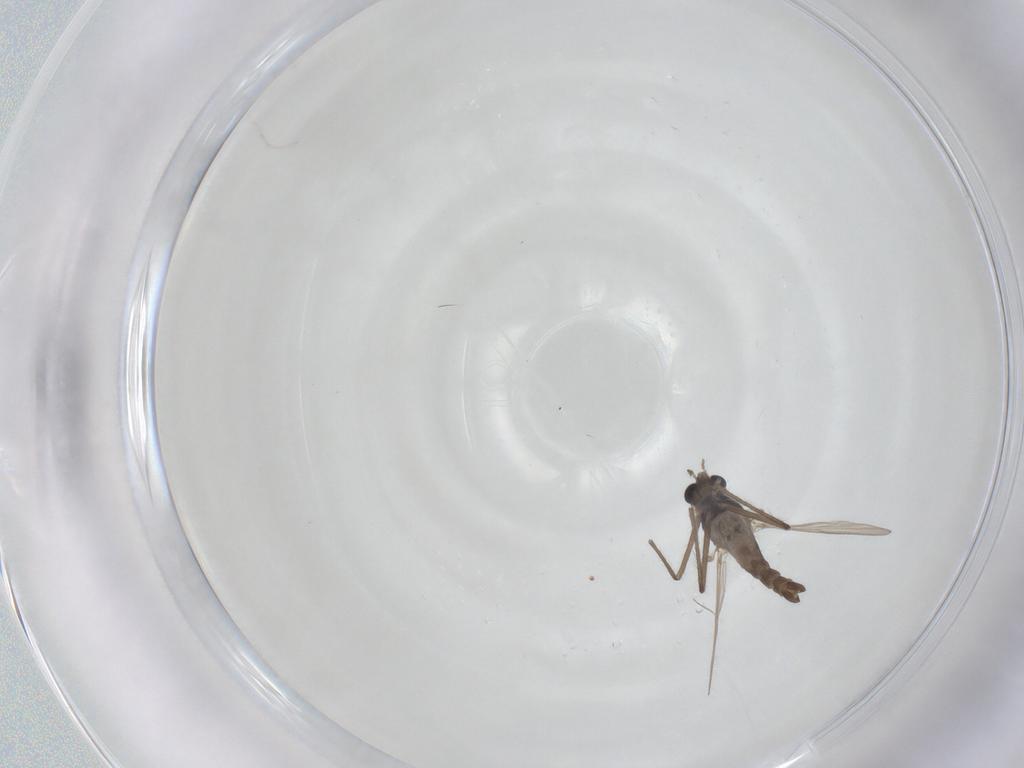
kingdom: Animalia
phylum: Arthropoda
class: Insecta
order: Diptera
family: Chironomidae
